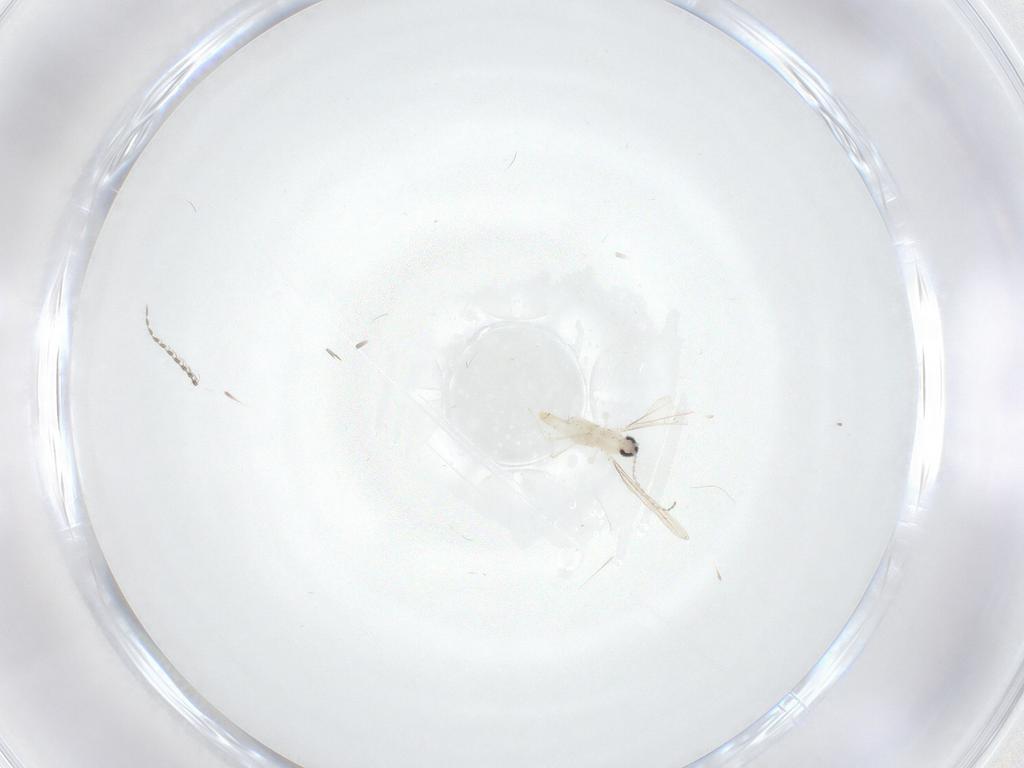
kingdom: Animalia
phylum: Arthropoda
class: Insecta
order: Diptera
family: Cecidomyiidae
